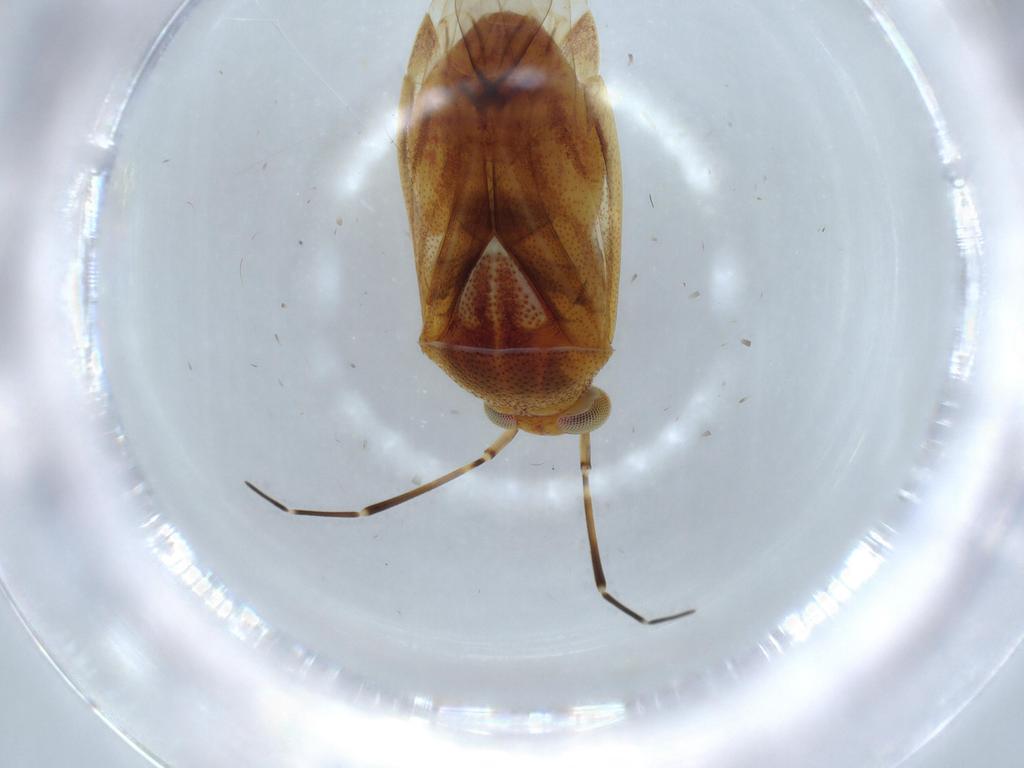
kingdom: Animalia
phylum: Arthropoda
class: Insecta
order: Hemiptera
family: Miridae
